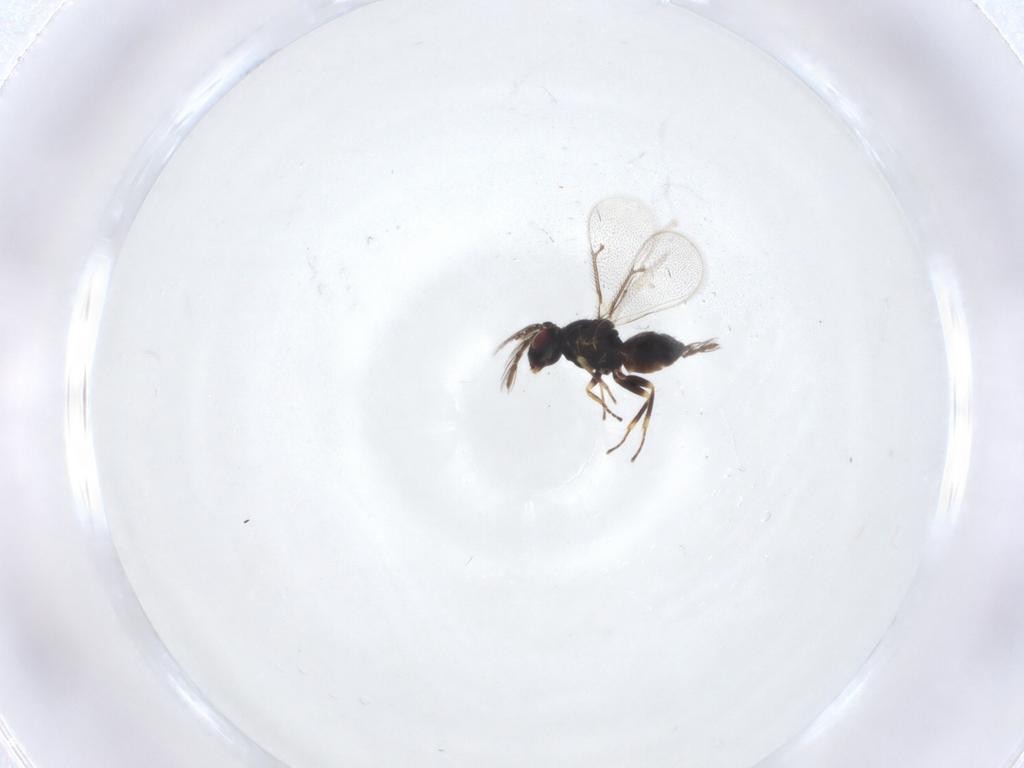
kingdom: Animalia
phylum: Arthropoda
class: Insecta
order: Hymenoptera
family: Eulophidae
